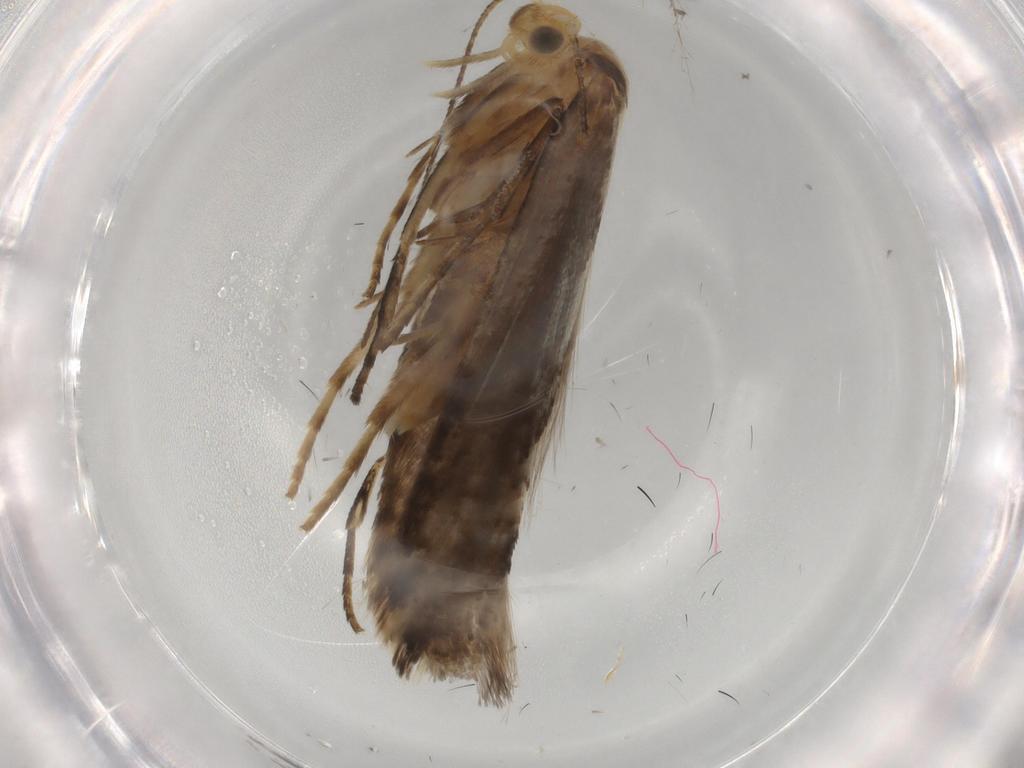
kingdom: Animalia
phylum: Arthropoda
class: Insecta
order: Lepidoptera
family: Argyresthiidae
